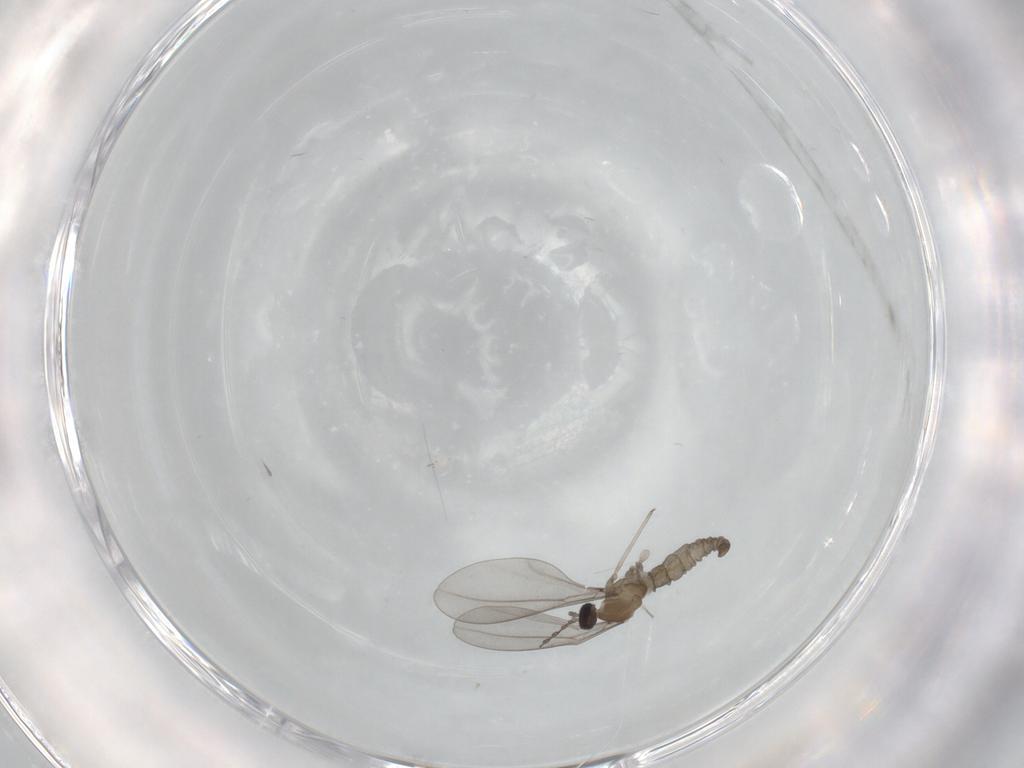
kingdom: Animalia
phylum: Arthropoda
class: Insecta
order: Diptera
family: Cecidomyiidae
